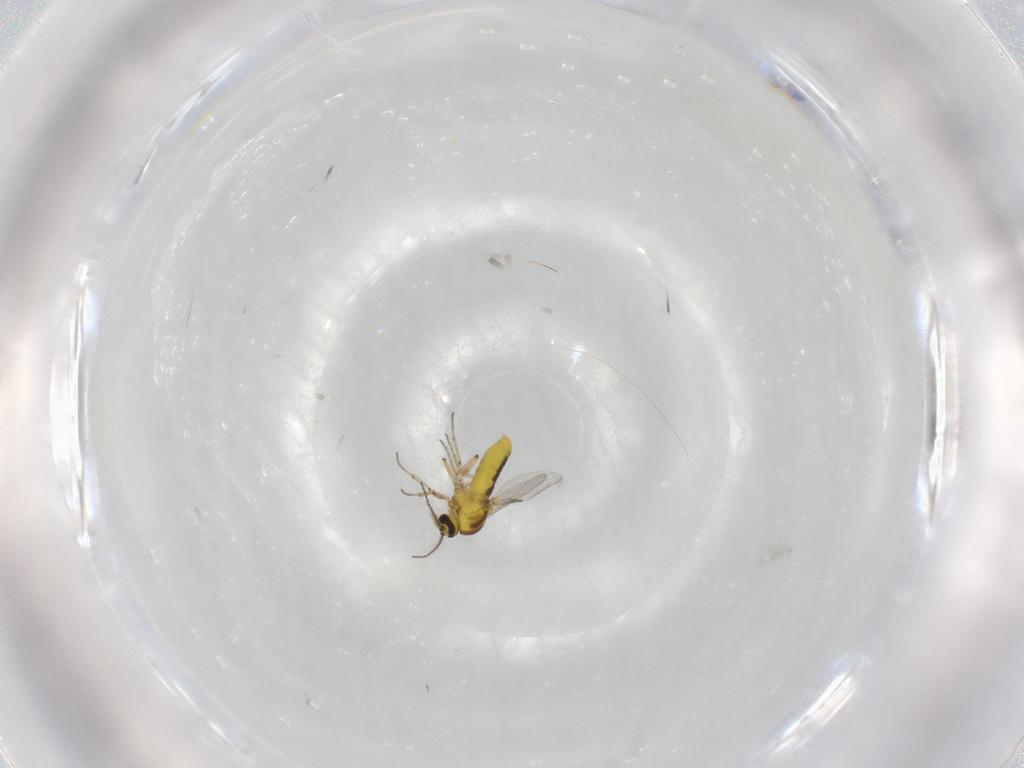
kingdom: Animalia
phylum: Arthropoda
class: Insecta
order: Diptera
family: Ceratopogonidae
